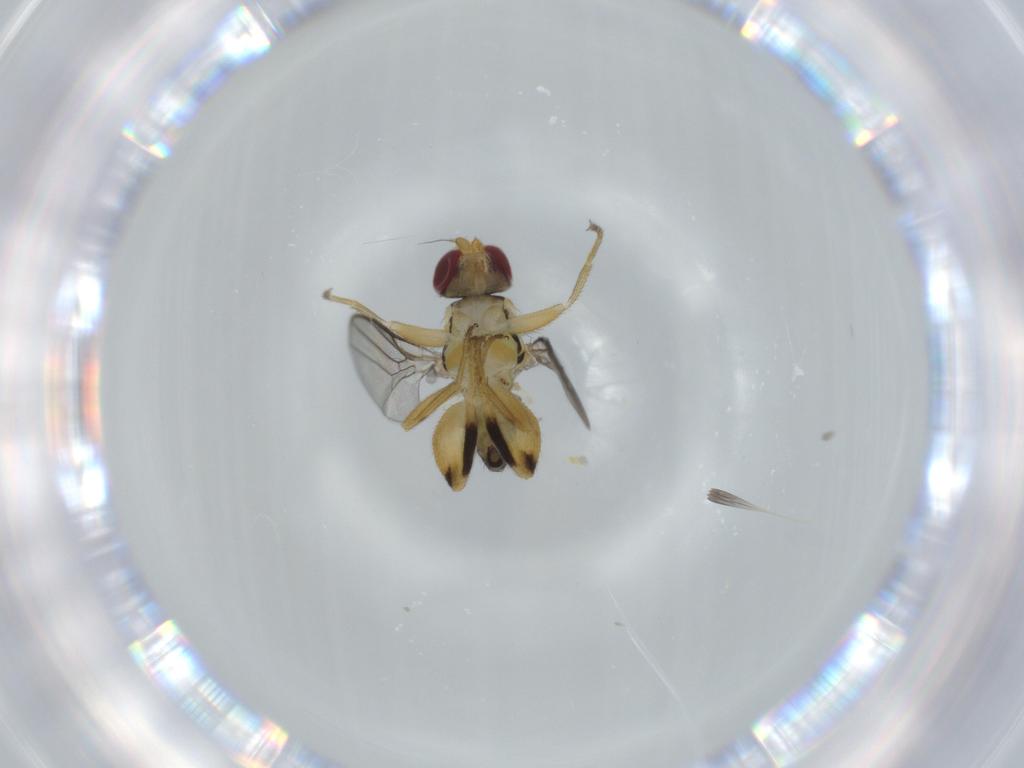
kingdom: Animalia
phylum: Arthropoda
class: Insecta
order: Diptera
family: Chloropidae
